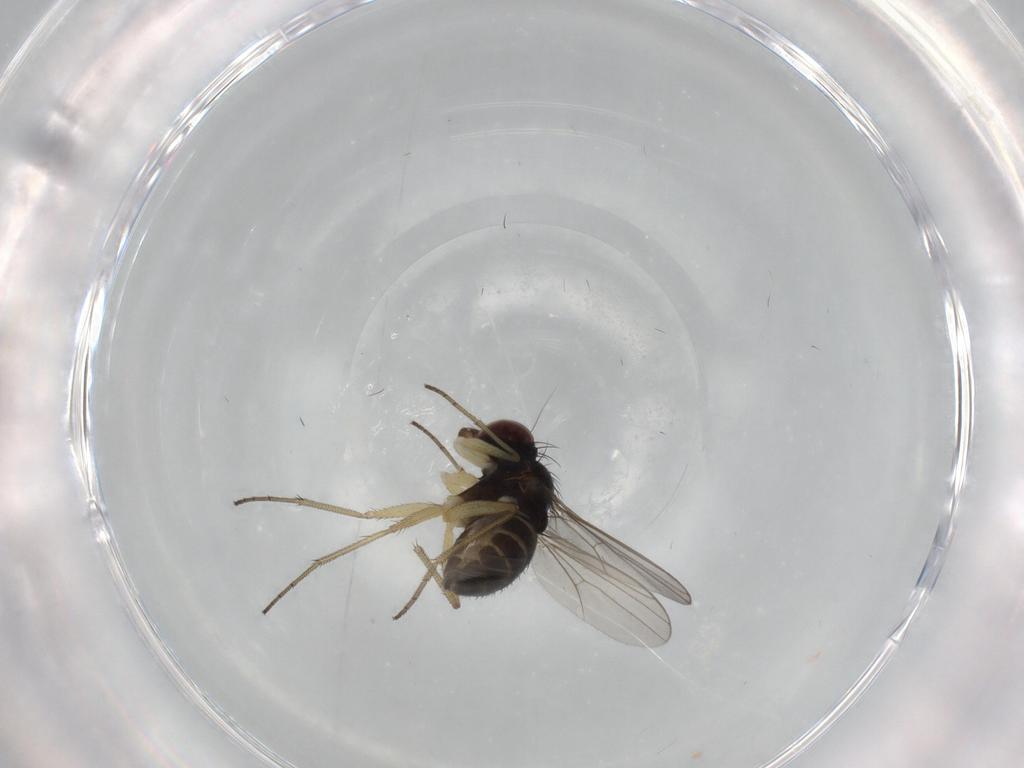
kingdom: Animalia
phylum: Arthropoda
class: Insecta
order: Diptera
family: Dolichopodidae
